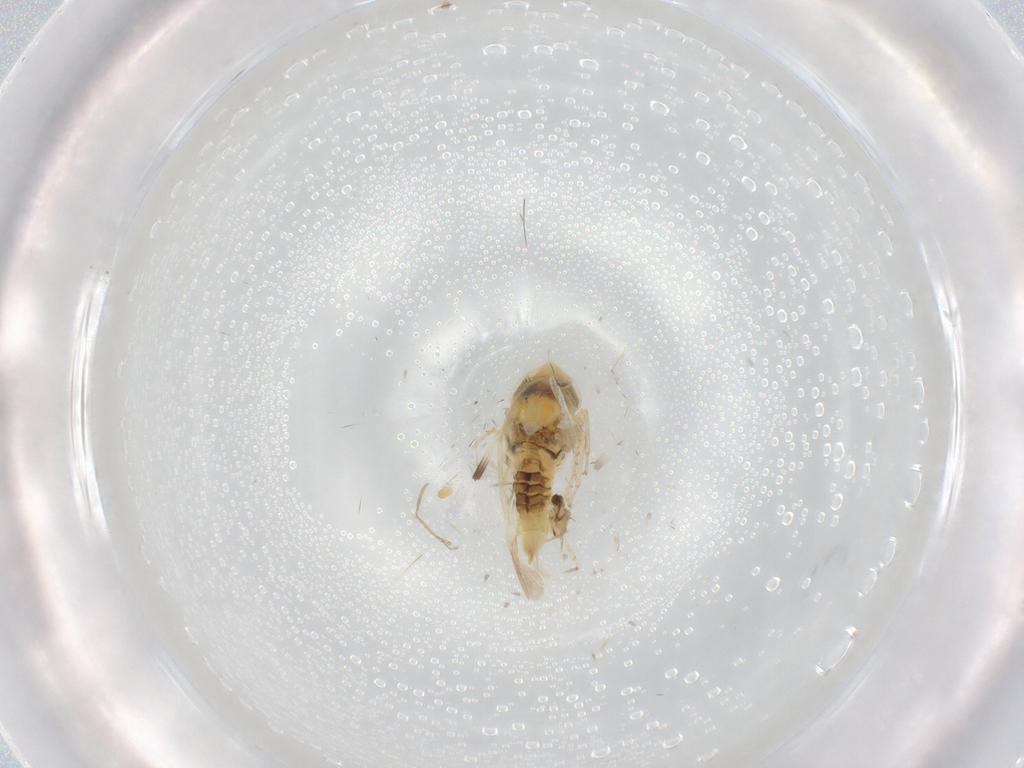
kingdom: Animalia
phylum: Arthropoda
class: Insecta
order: Hemiptera
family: Cicadellidae
